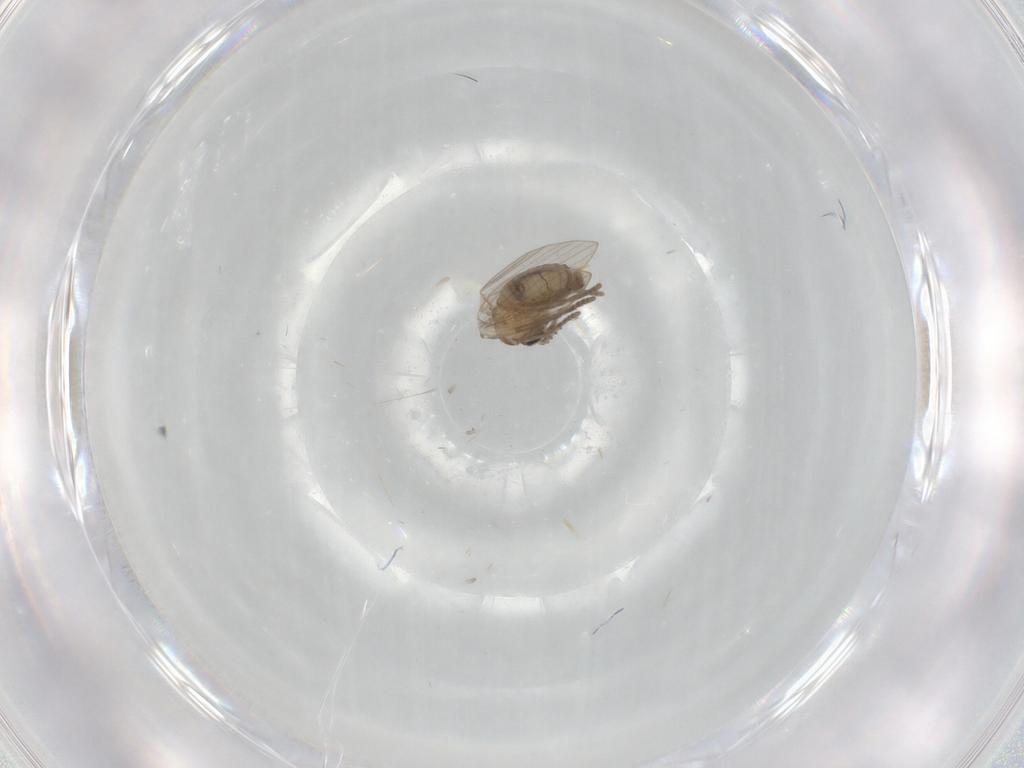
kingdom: Animalia
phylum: Arthropoda
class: Insecta
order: Diptera
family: Psychodidae
